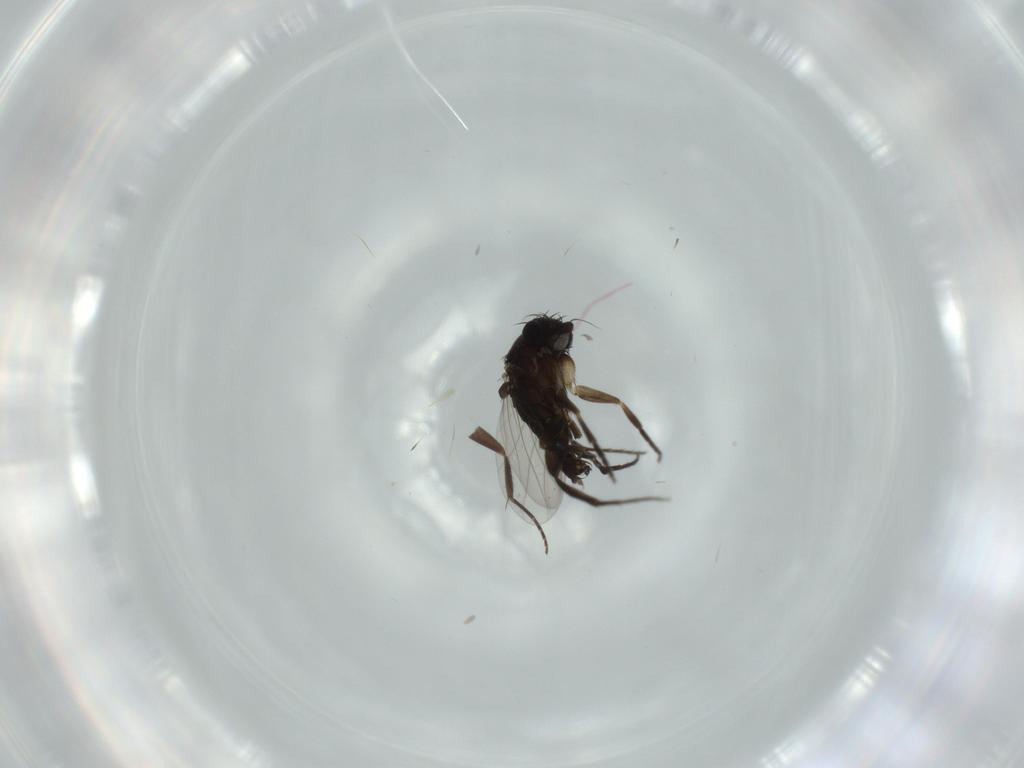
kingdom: Animalia
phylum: Arthropoda
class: Insecta
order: Diptera
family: Phoridae
